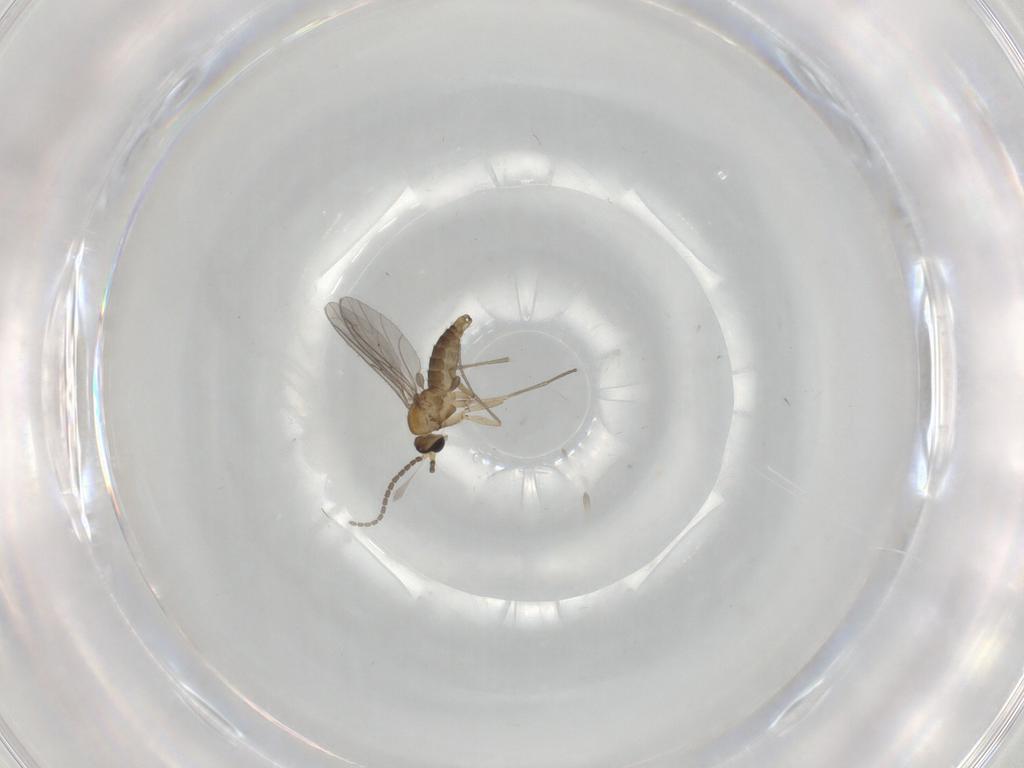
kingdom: Animalia
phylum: Arthropoda
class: Insecta
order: Diptera
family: Sciaridae
